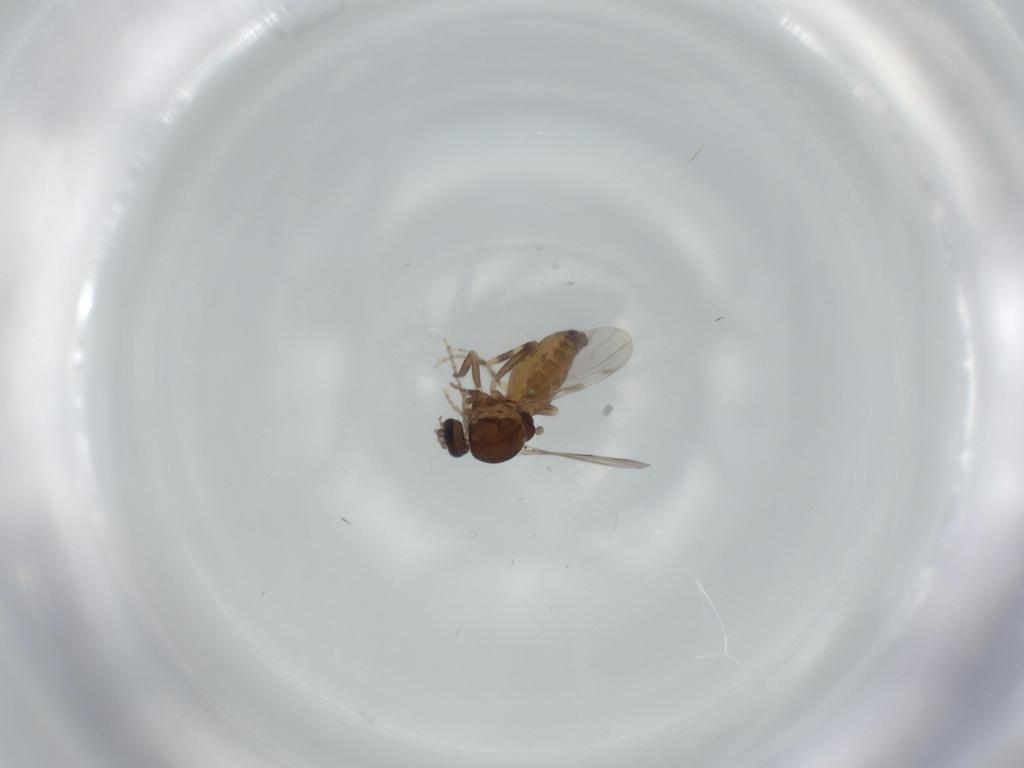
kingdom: Animalia
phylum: Arthropoda
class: Insecta
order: Diptera
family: Ceratopogonidae
